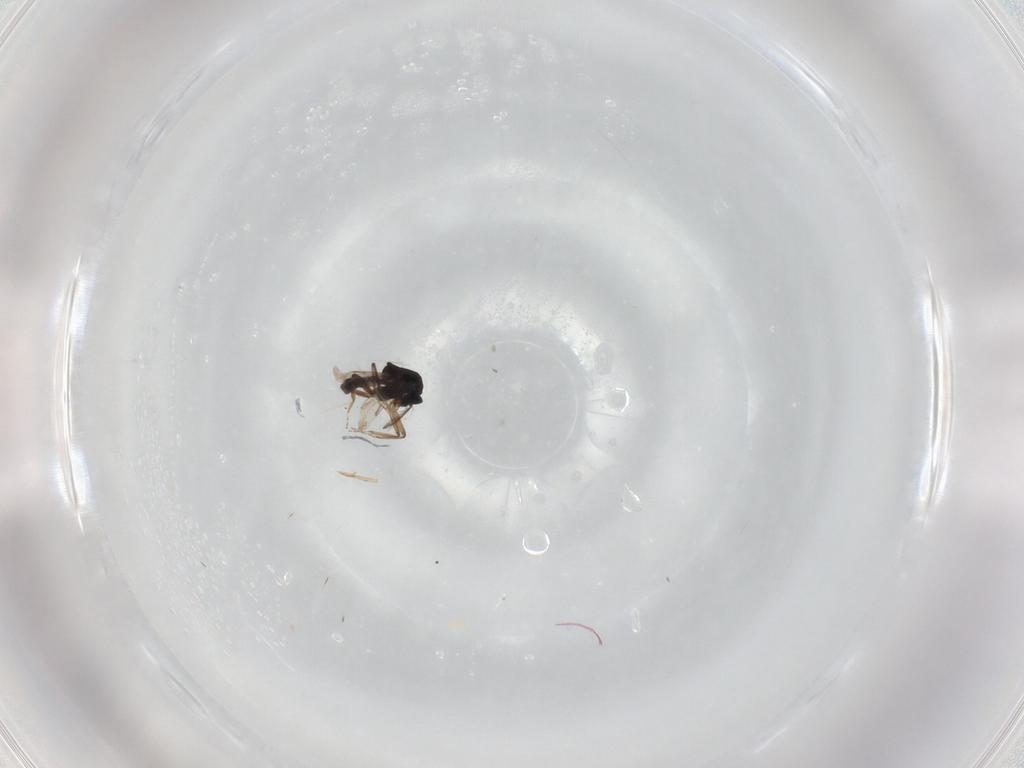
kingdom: Animalia
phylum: Arthropoda
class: Insecta
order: Diptera
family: Ceratopogonidae
